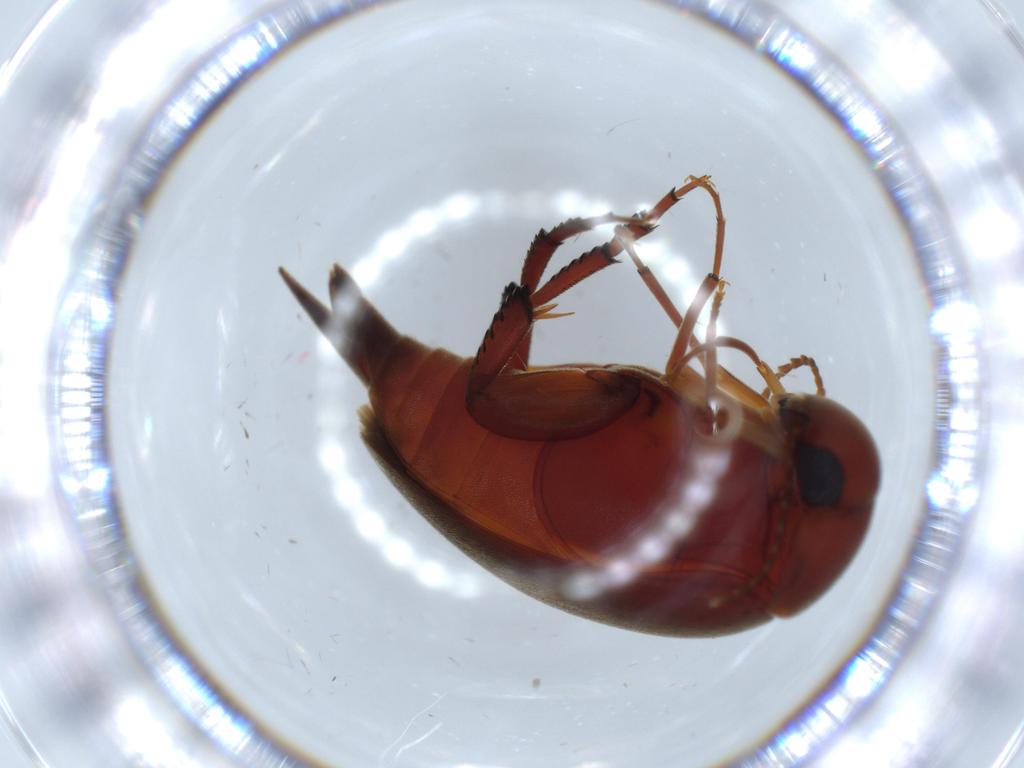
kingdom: Animalia
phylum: Arthropoda
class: Insecta
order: Coleoptera
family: Mordellidae
